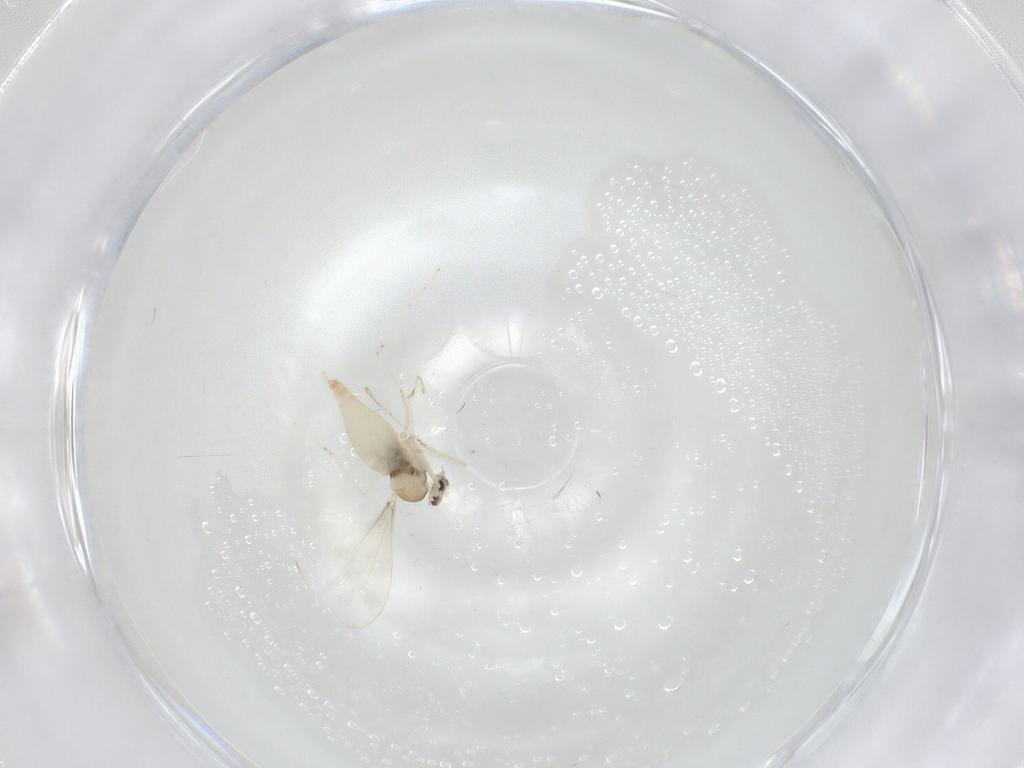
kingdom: Animalia
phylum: Arthropoda
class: Insecta
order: Diptera
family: Cecidomyiidae
